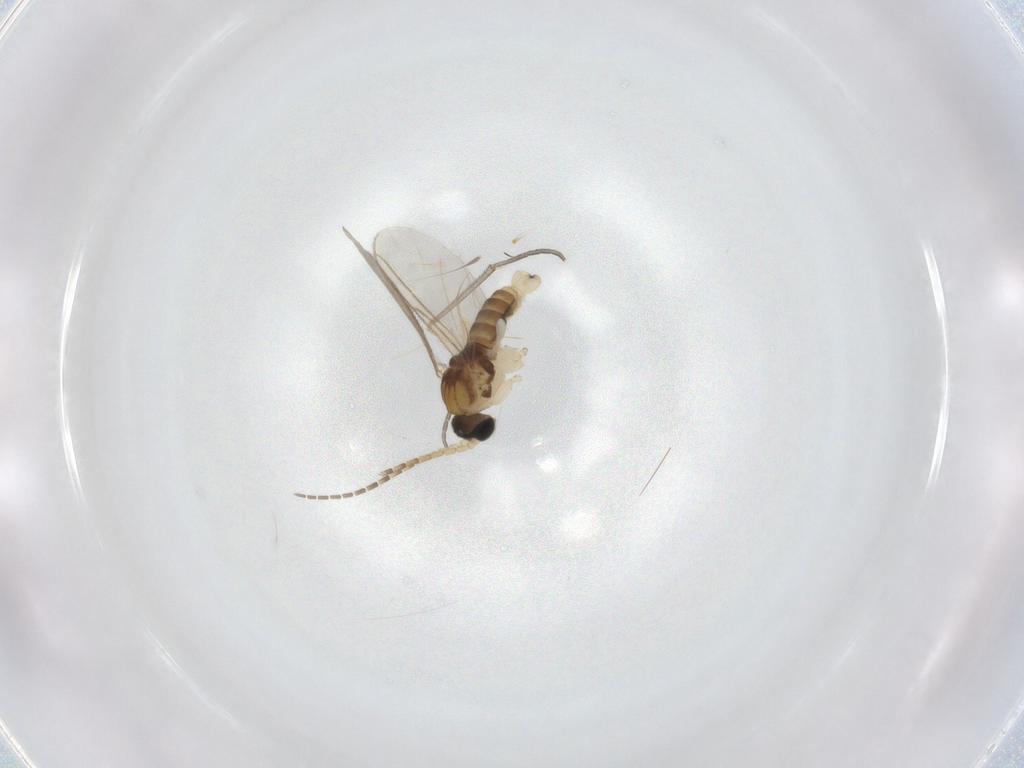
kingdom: Animalia
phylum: Arthropoda
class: Insecta
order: Diptera
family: Sciaridae
